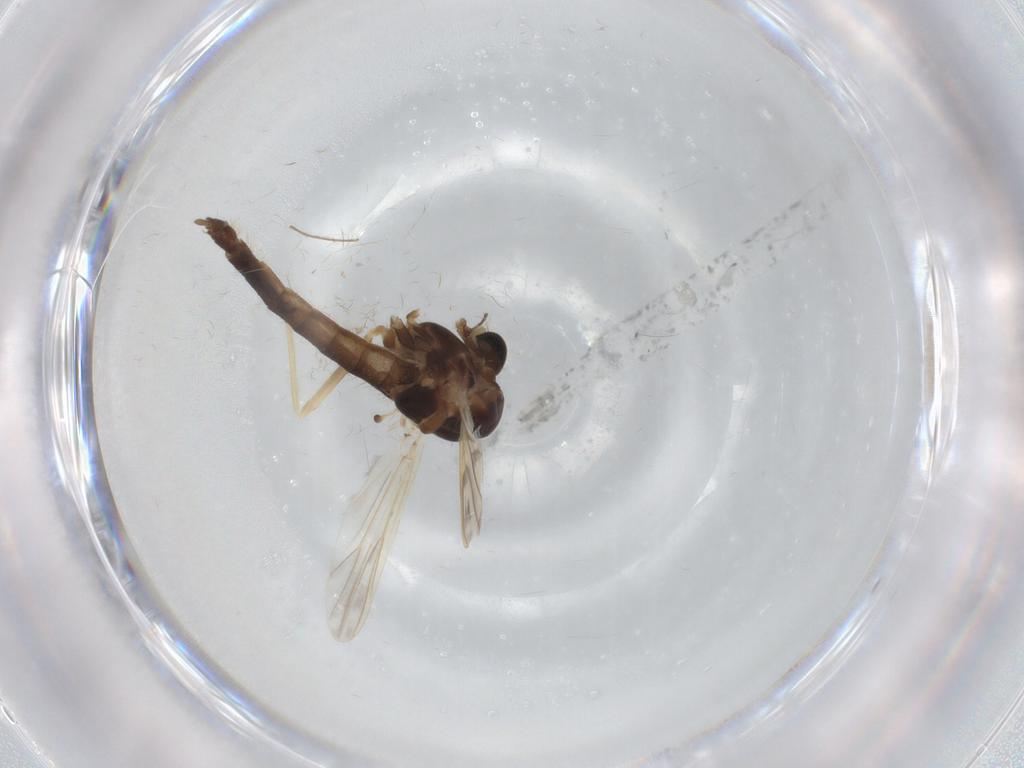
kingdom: Animalia
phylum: Arthropoda
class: Insecta
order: Diptera
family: Chironomidae
